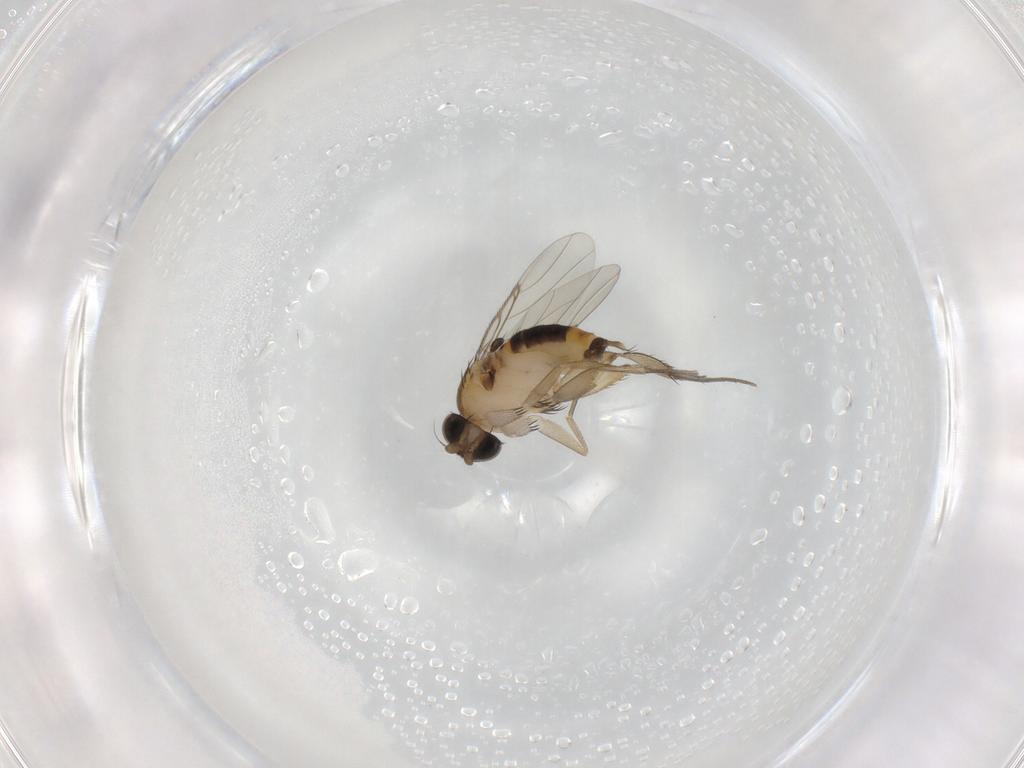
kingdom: Animalia
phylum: Arthropoda
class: Insecta
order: Diptera
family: Phoridae
